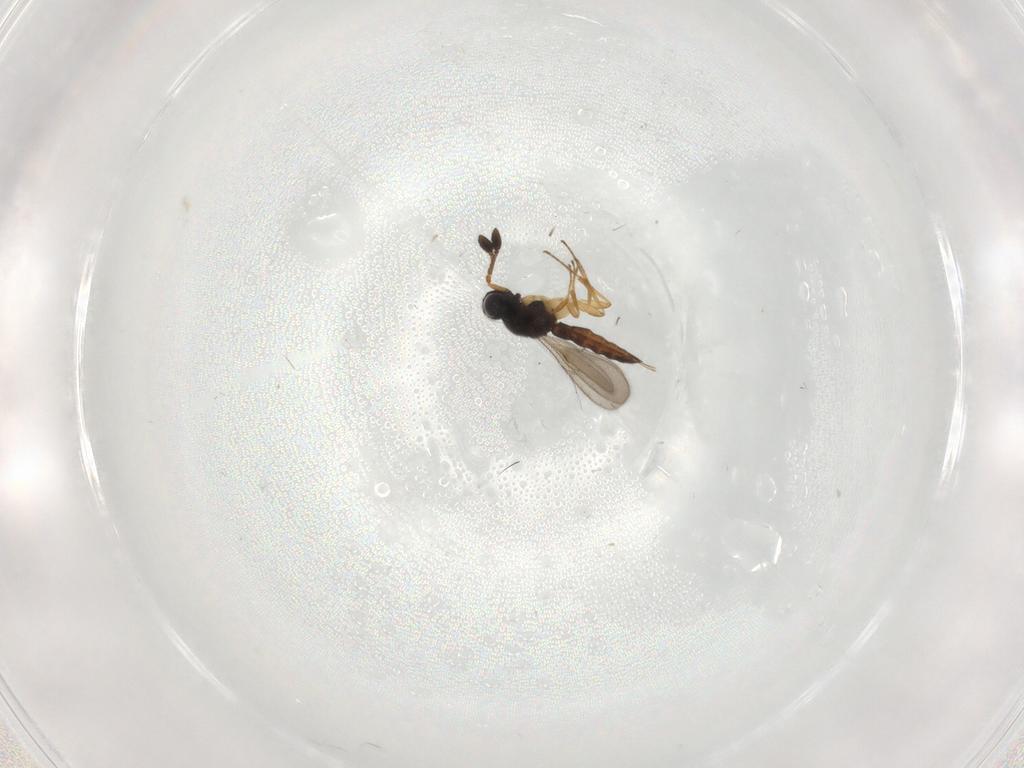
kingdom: Animalia
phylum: Arthropoda
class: Insecta
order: Hymenoptera
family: Scelionidae
